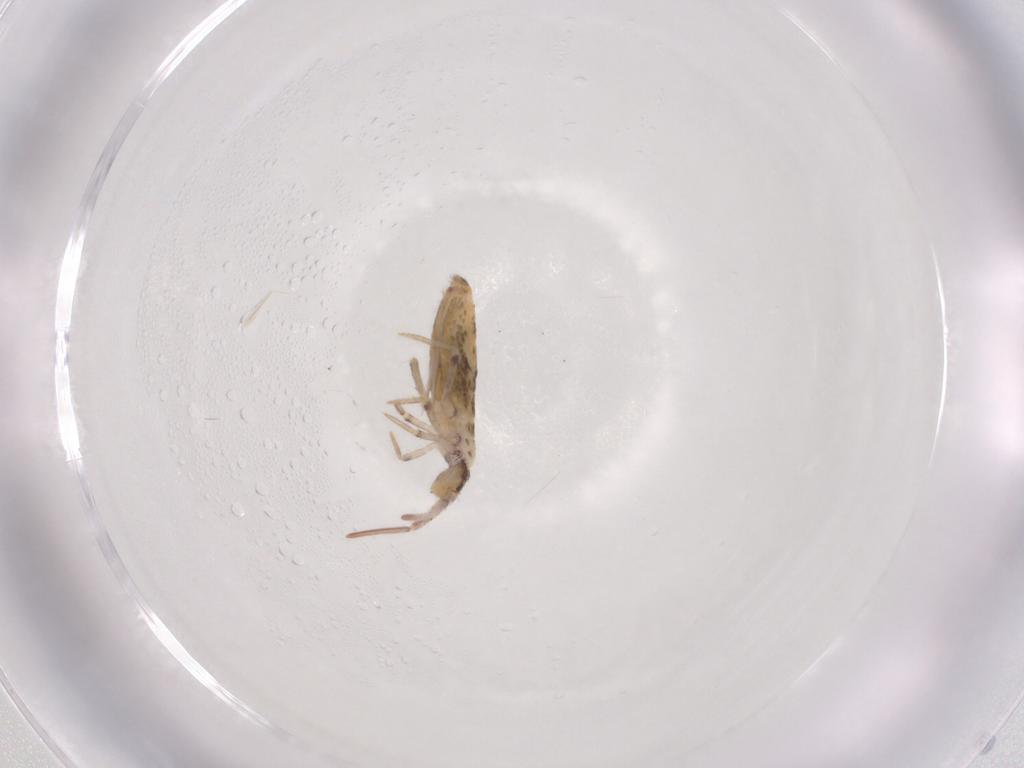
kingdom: Animalia
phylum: Arthropoda
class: Collembola
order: Entomobryomorpha
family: Entomobryidae
